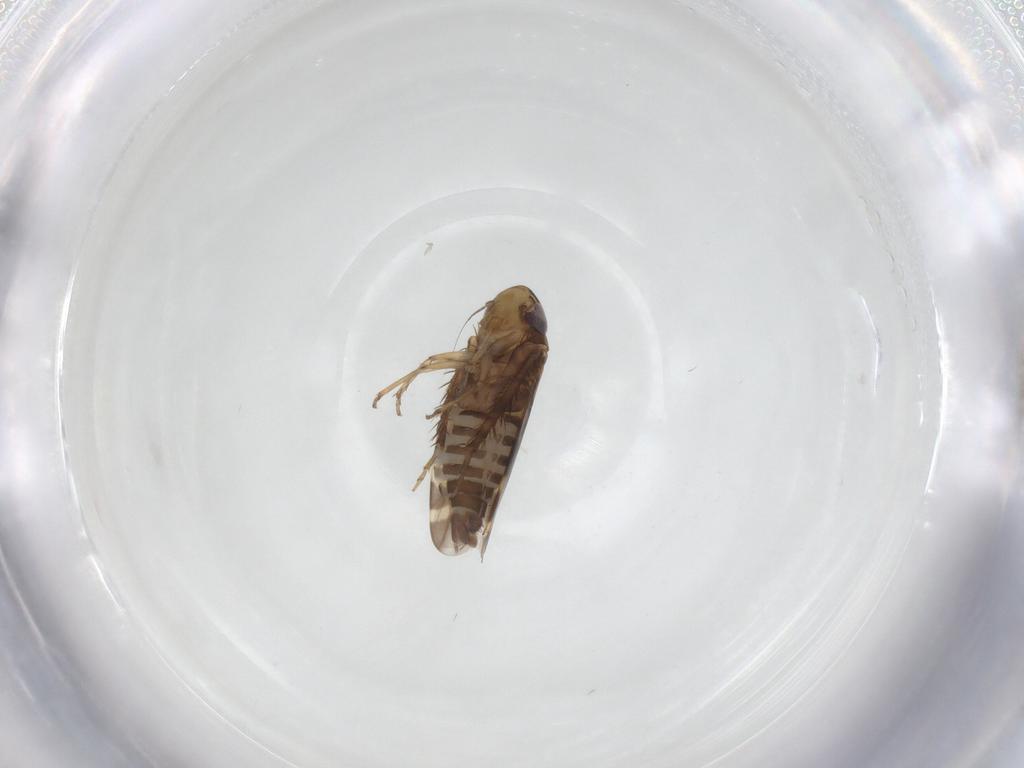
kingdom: Animalia
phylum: Arthropoda
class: Insecta
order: Hemiptera
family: Cicadellidae
